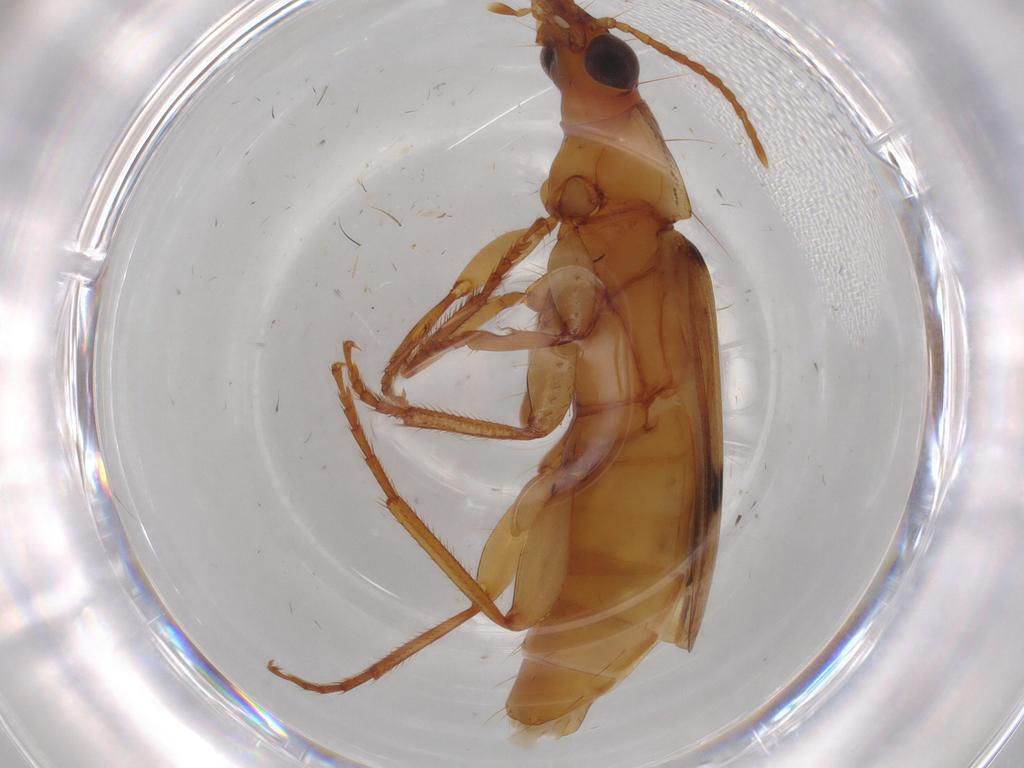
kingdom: Animalia
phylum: Arthropoda
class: Insecta
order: Coleoptera
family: Carabidae
